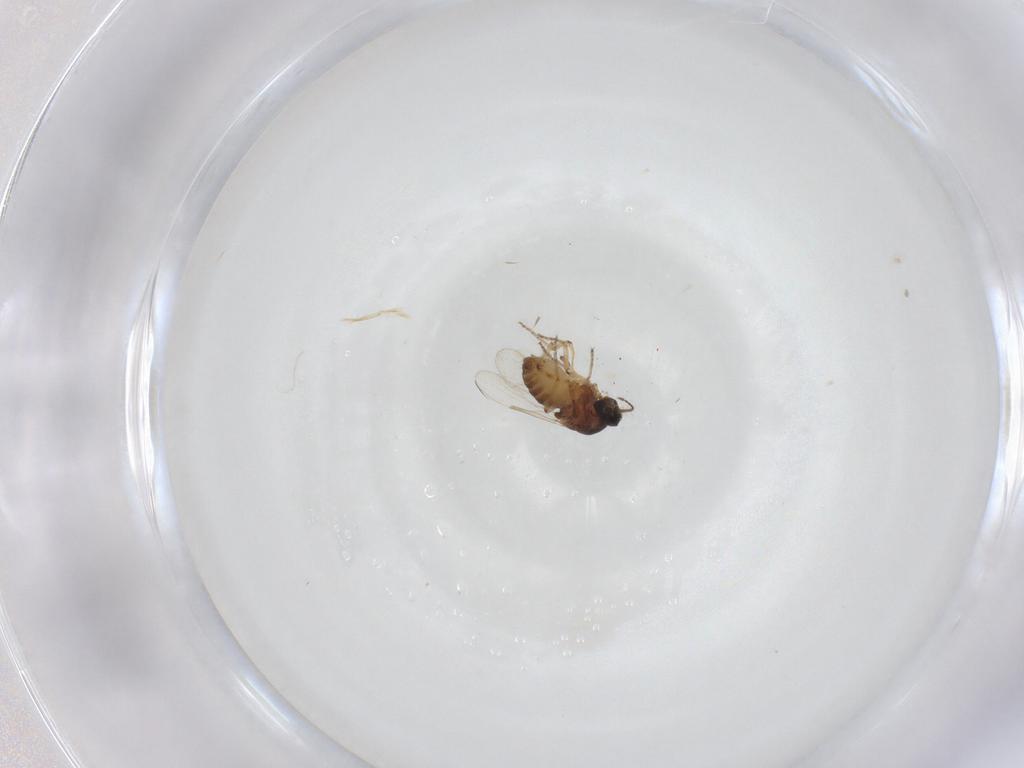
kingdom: Animalia
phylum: Arthropoda
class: Insecta
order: Diptera
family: Ceratopogonidae
